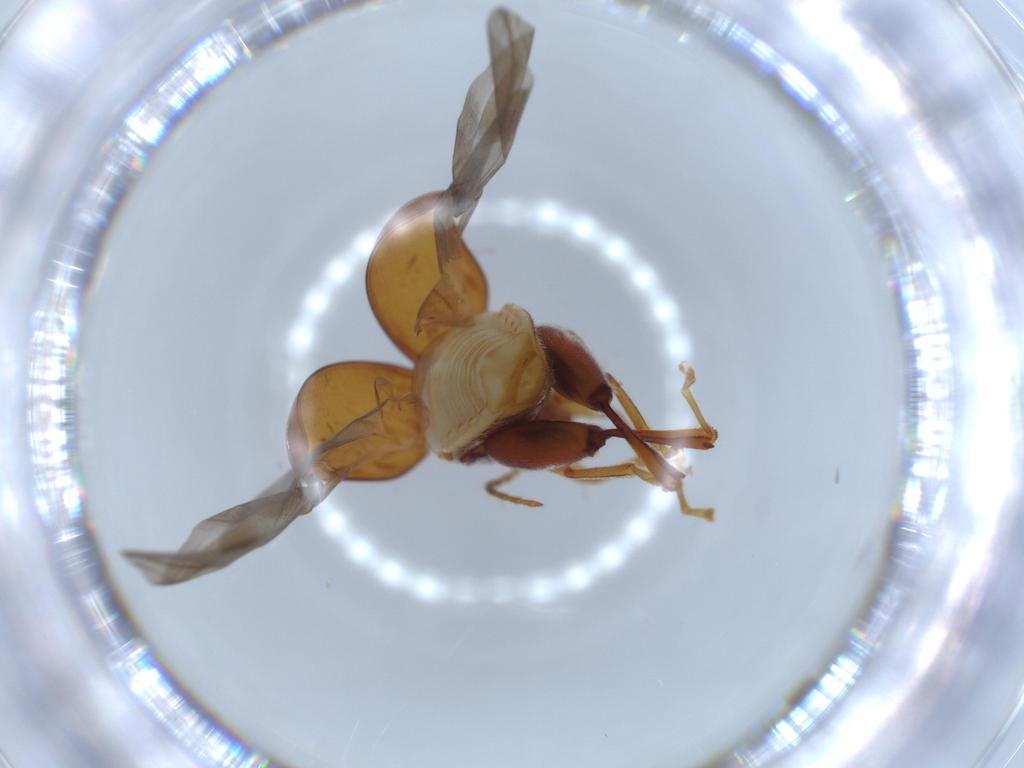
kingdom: Animalia
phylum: Arthropoda
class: Insecta
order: Coleoptera
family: Chrysomelidae
